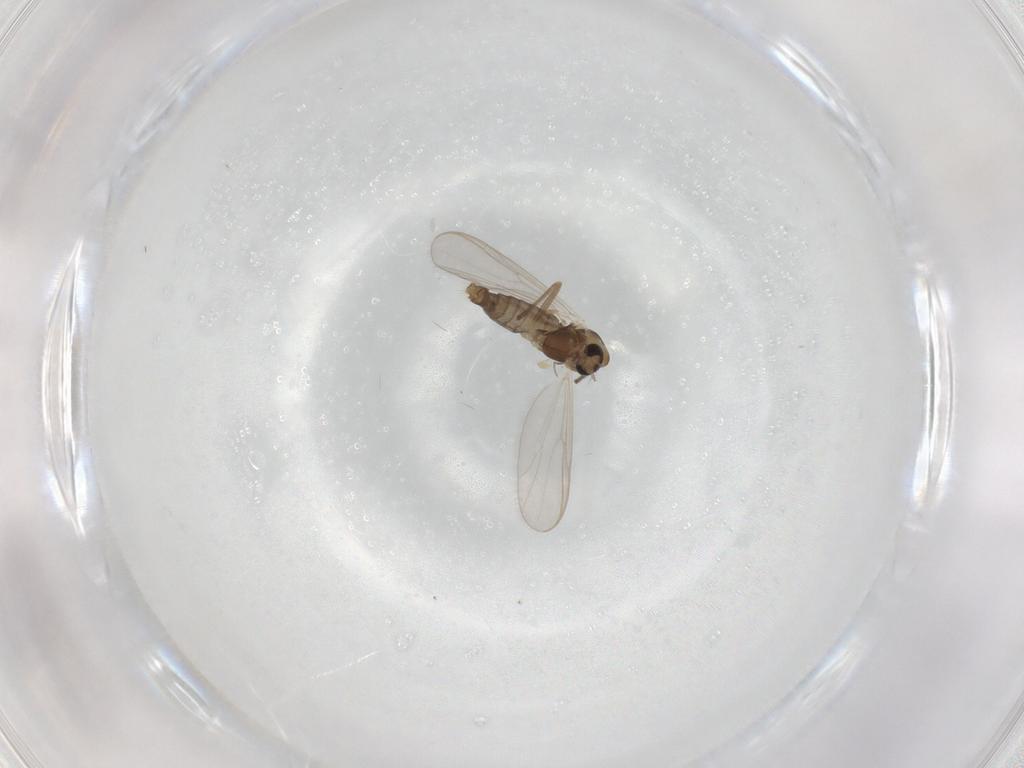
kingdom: Animalia
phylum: Arthropoda
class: Insecta
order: Diptera
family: Chironomidae
